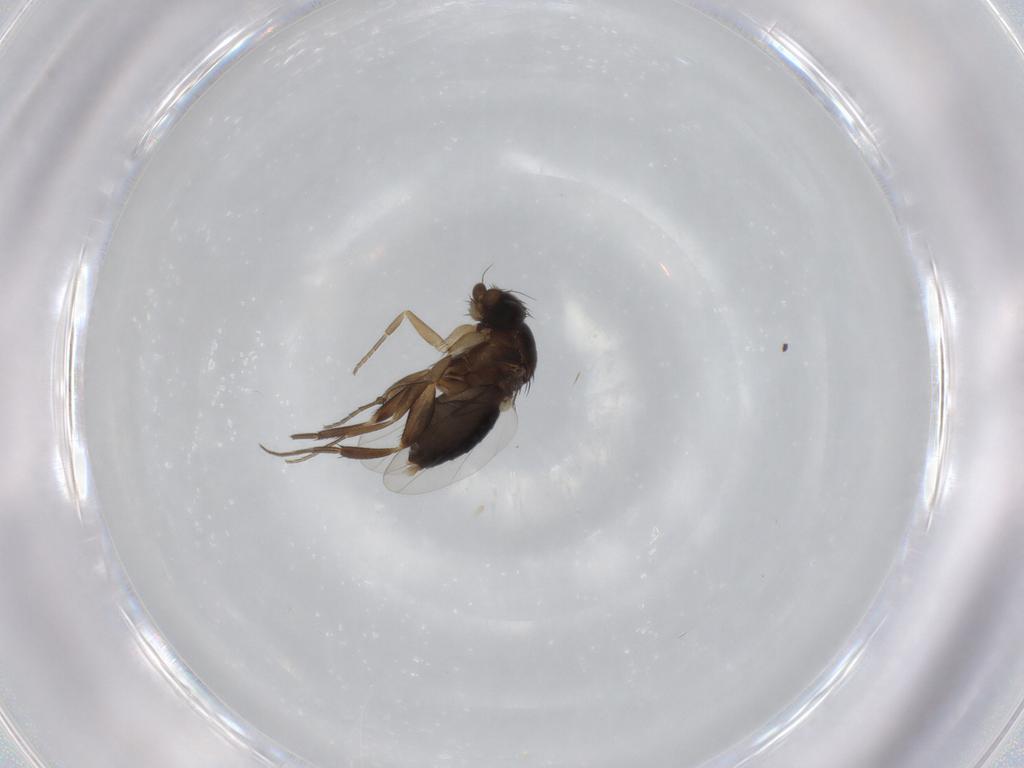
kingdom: Animalia
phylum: Arthropoda
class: Insecta
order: Diptera
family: Phoridae
